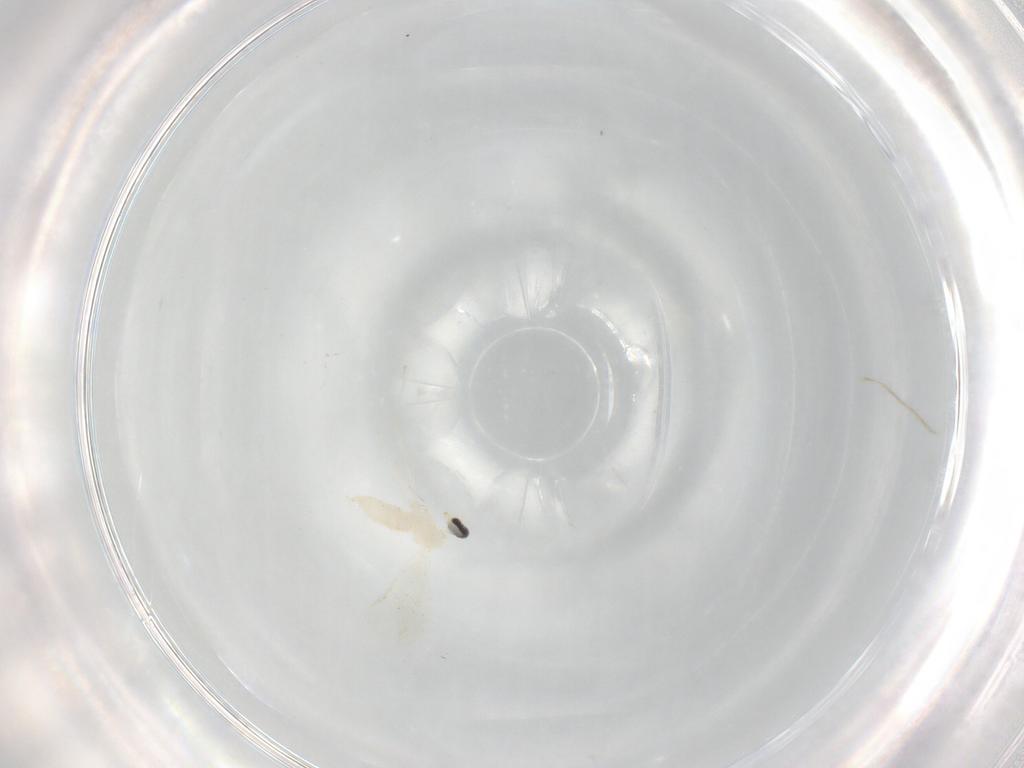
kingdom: Animalia
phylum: Arthropoda
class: Insecta
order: Diptera
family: Cecidomyiidae
